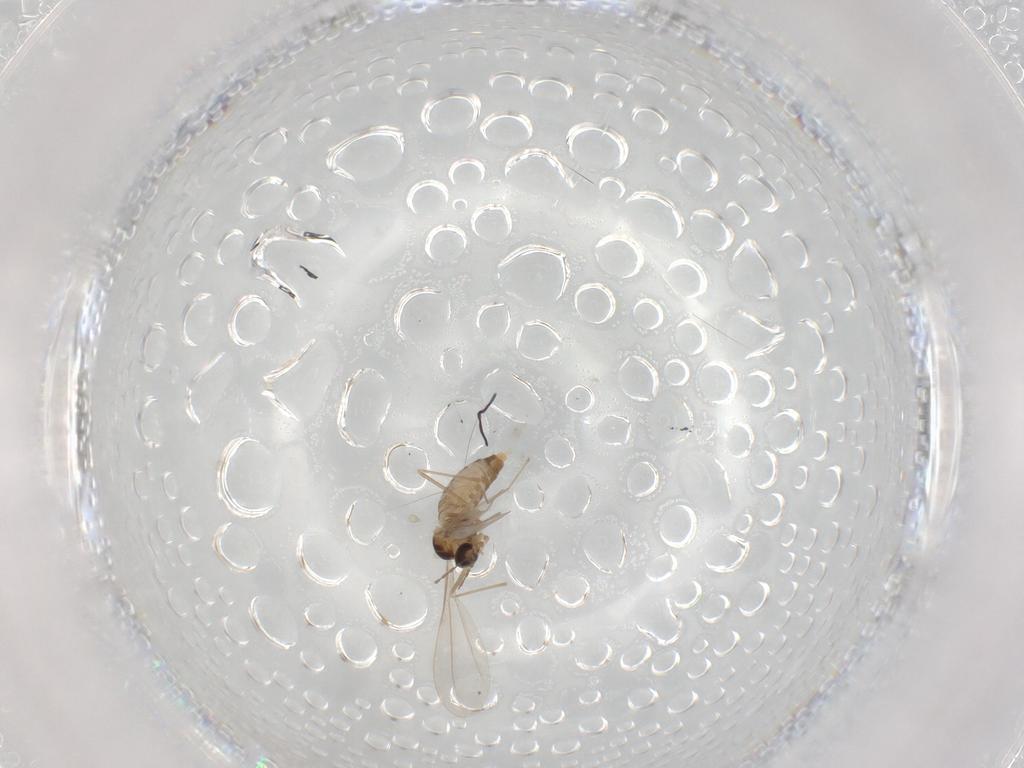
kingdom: Animalia
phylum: Arthropoda
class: Insecta
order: Diptera
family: Cecidomyiidae
